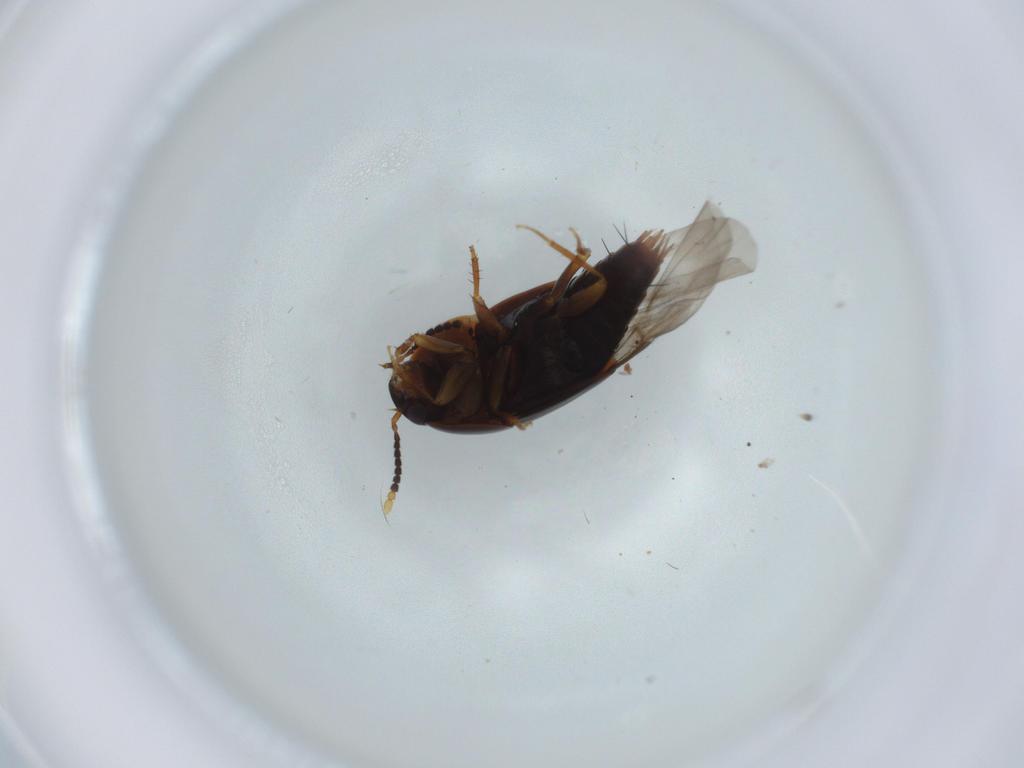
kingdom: Animalia
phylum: Arthropoda
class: Insecta
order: Coleoptera
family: Staphylinidae
